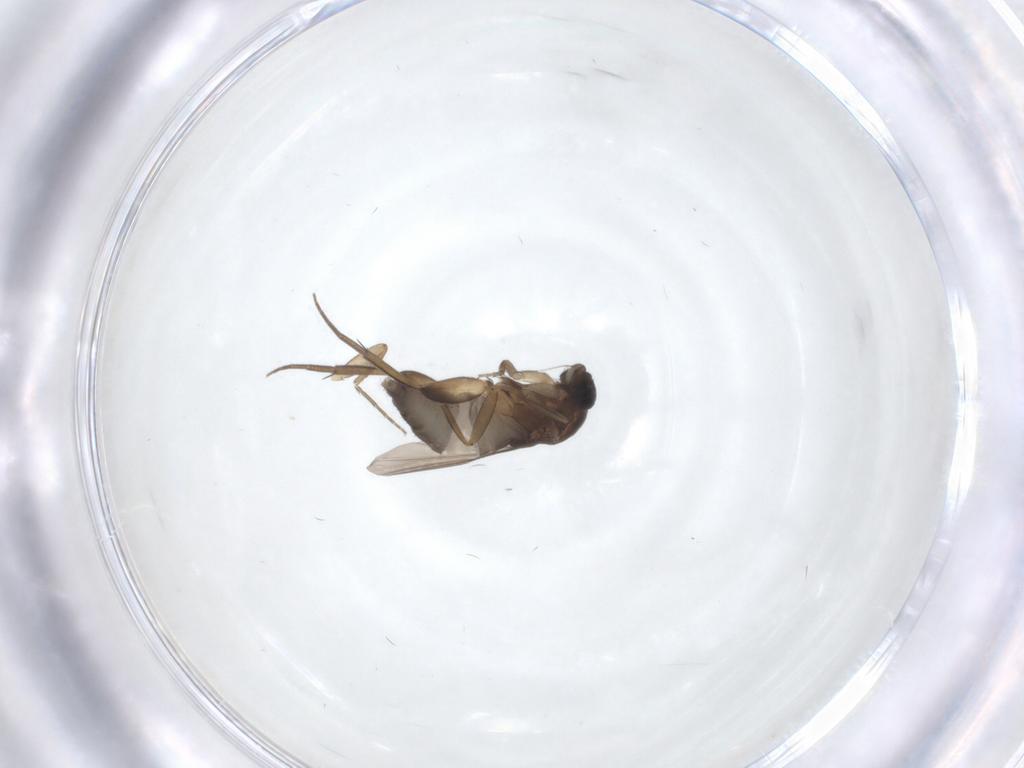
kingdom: Animalia
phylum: Arthropoda
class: Insecta
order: Diptera
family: Phoridae
